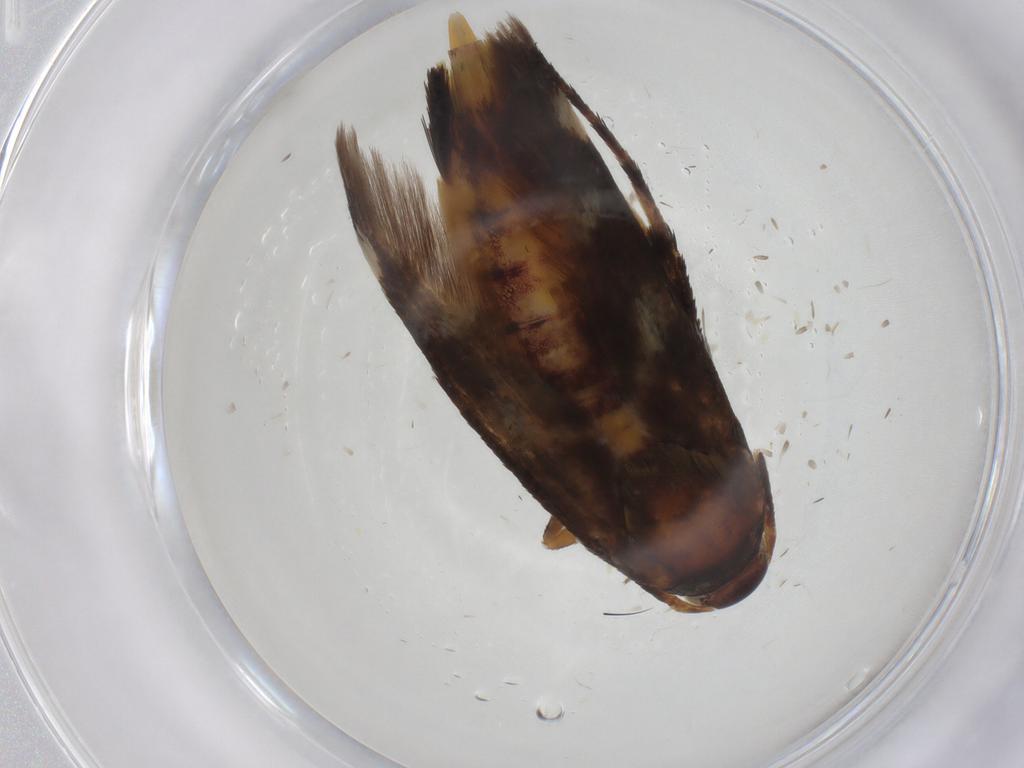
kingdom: Animalia
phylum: Arthropoda
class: Insecta
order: Lepidoptera
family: Scythrididae
